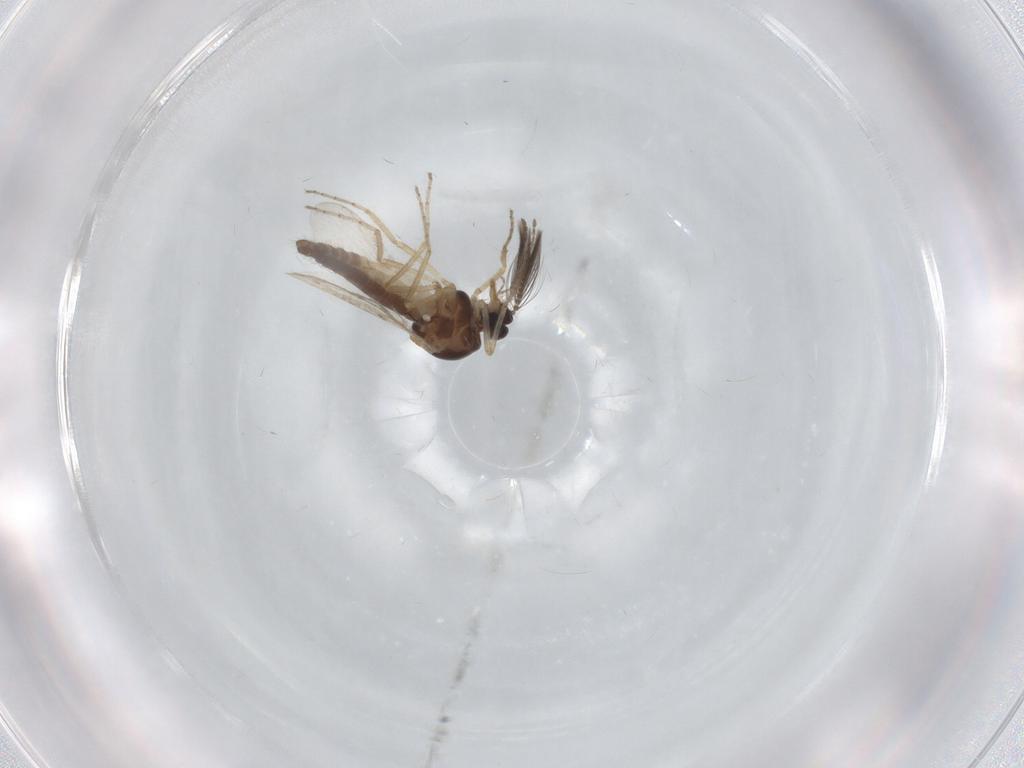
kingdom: Animalia
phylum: Arthropoda
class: Insecta
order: Diptera
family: Ceratopogonidae
